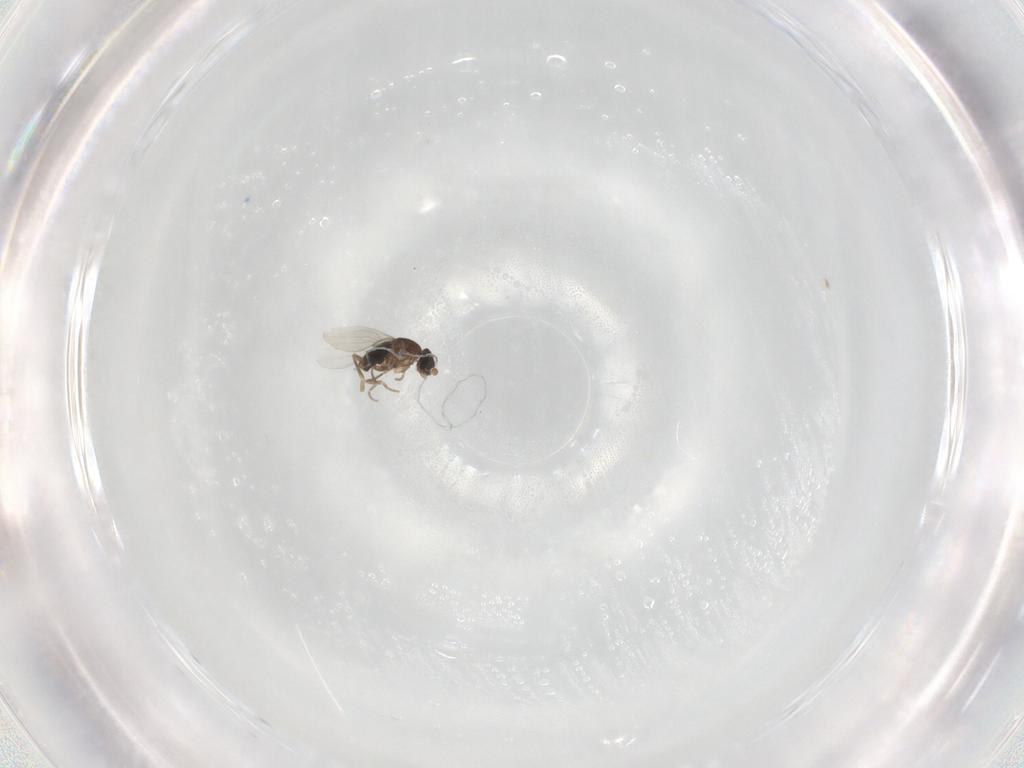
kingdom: Animalia
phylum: Arthropoda
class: Insecta
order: Diptera
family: Phoridae
